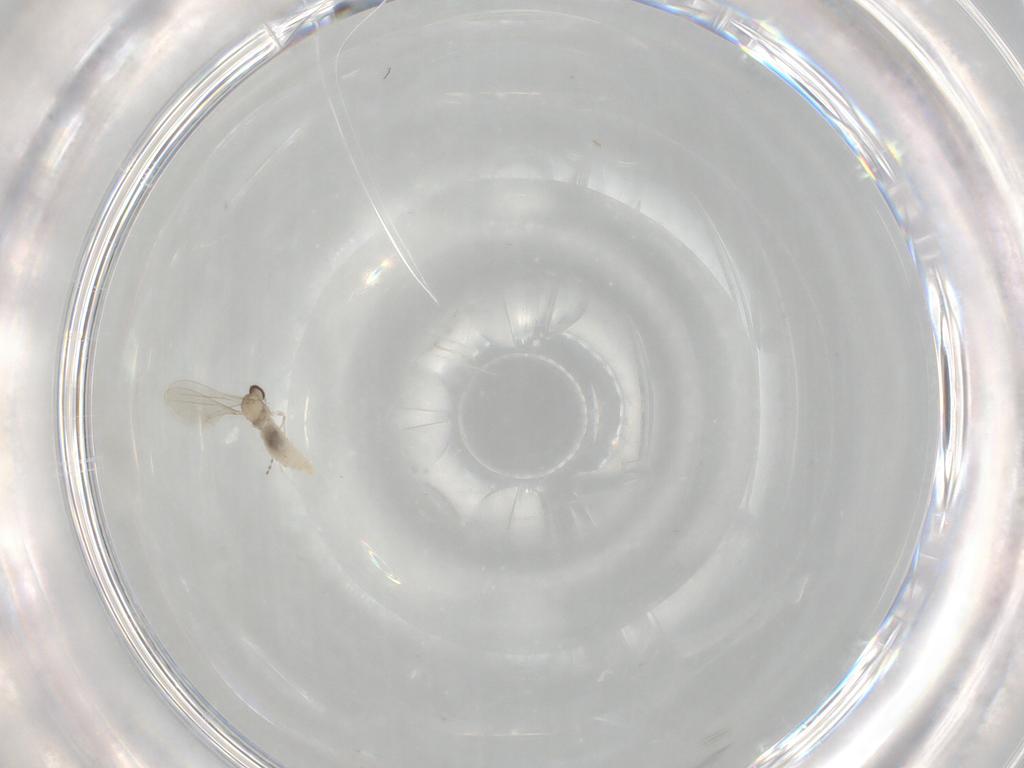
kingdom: Animalia
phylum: Arthropoda
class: Insecta
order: Diptera
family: Cecidomyiidae
